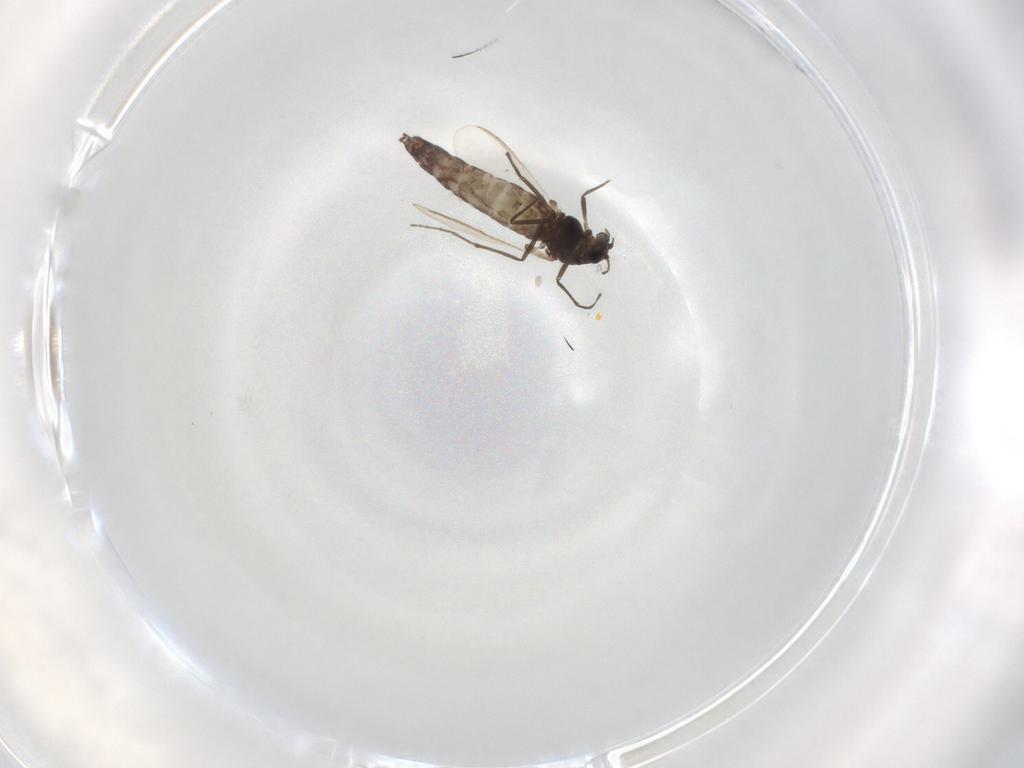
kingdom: Animalia
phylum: Arthropoda
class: Insecta
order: Diptera
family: Chironomidae
